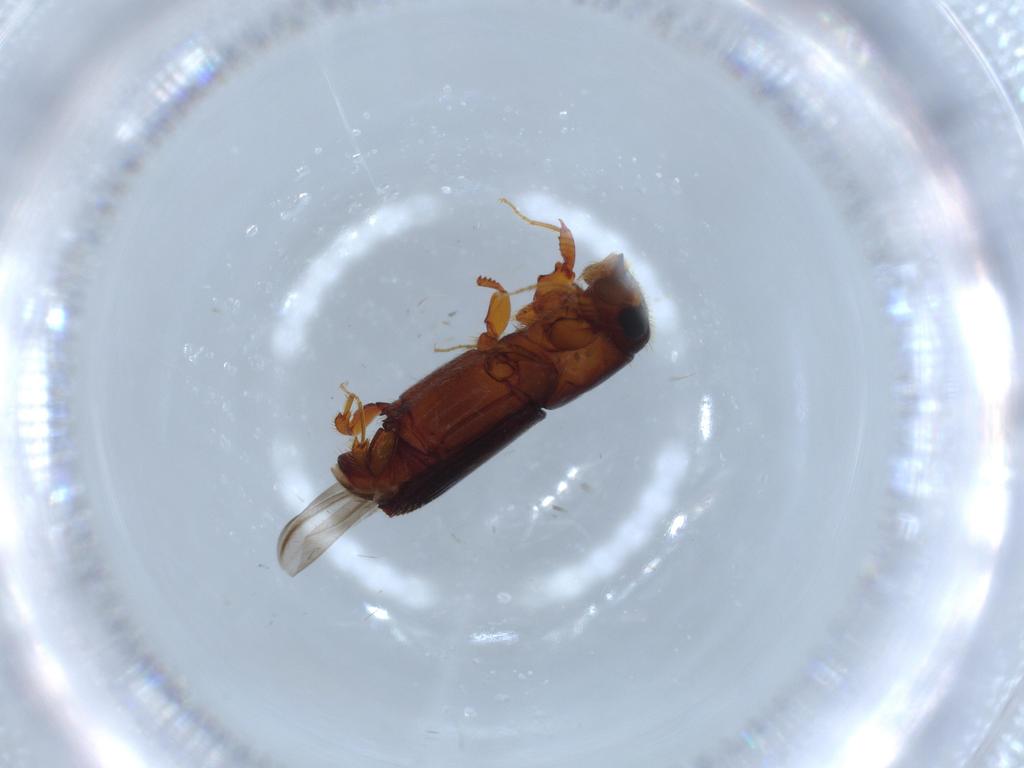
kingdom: Animalia
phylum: Arthropoda
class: Insecta
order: Coleoptera
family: Curculionidae
